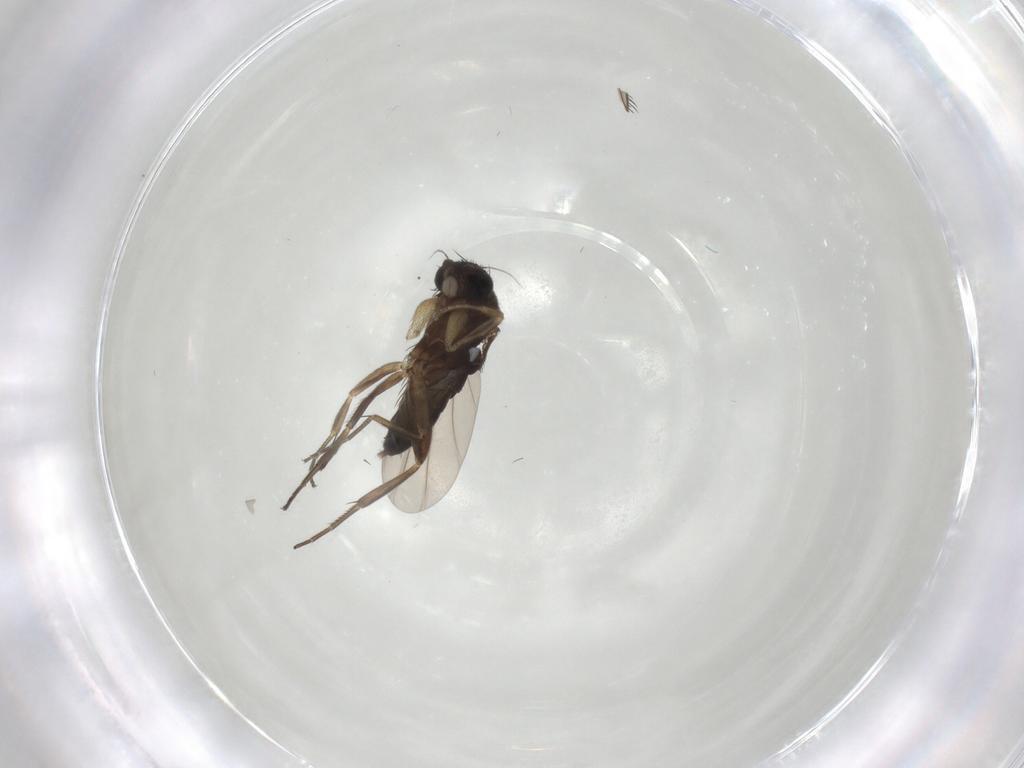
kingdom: Animalia
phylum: Arthropoda
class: Insecta
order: Diptera
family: Phoridae
